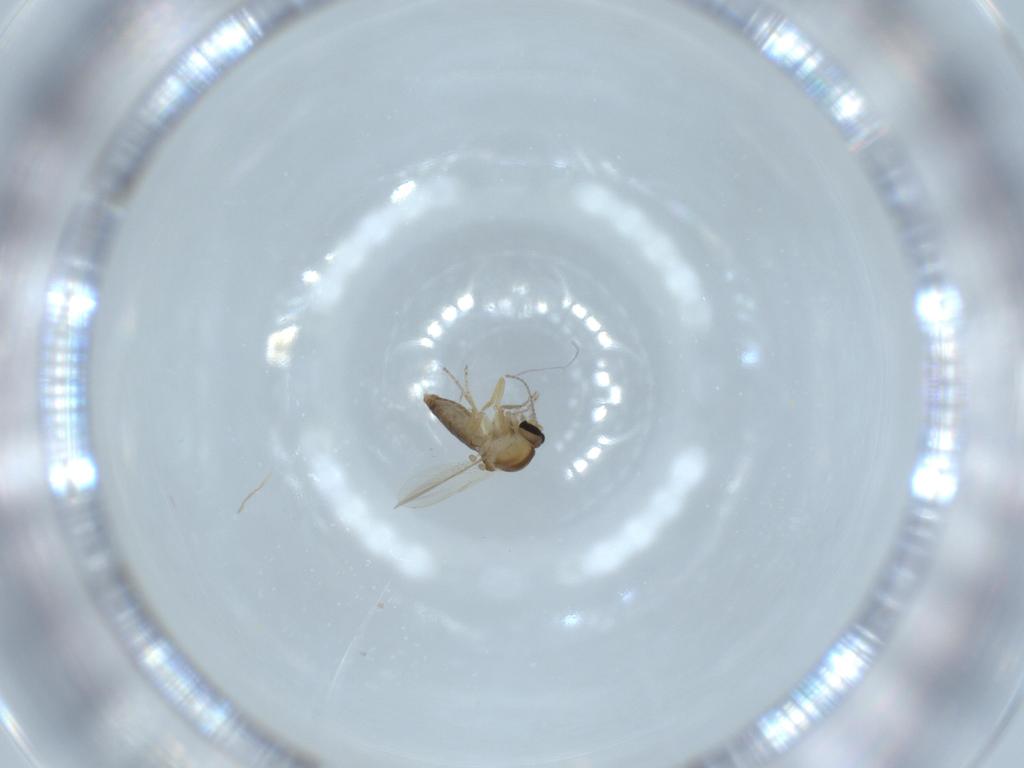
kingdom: Animalia
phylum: Arthropoda
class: Insecta
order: Diptera
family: Ceratopogonidae
